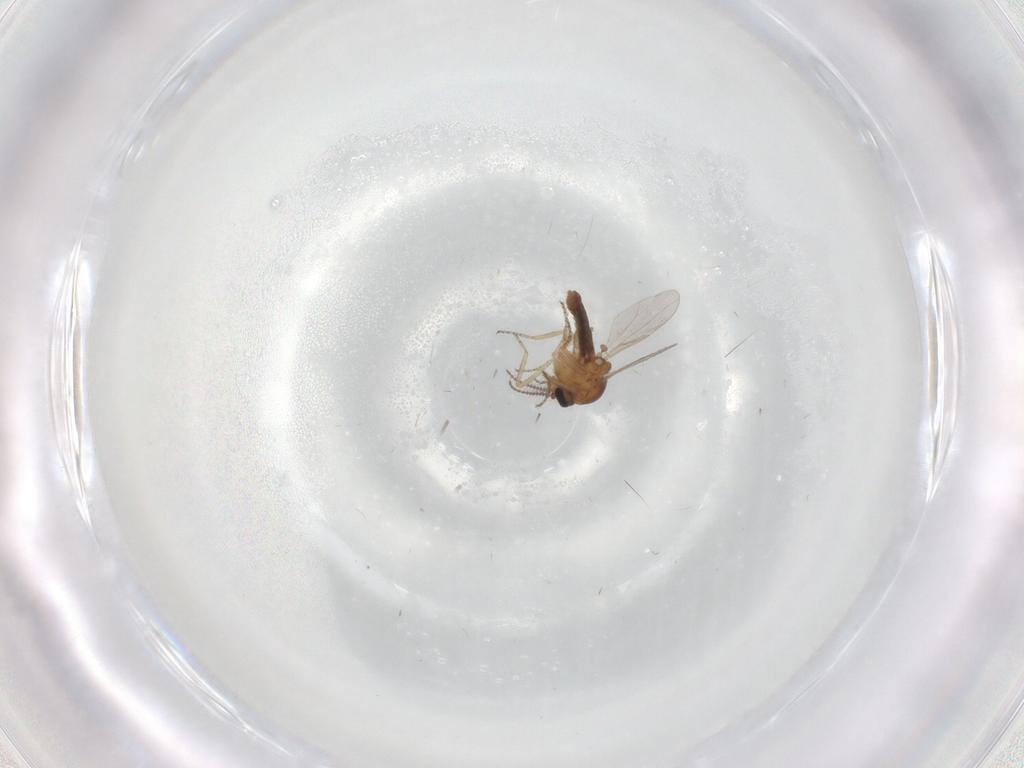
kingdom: Animalia
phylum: Arthropoda
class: Insecta
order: Diptera
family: Ceratopogonidae
